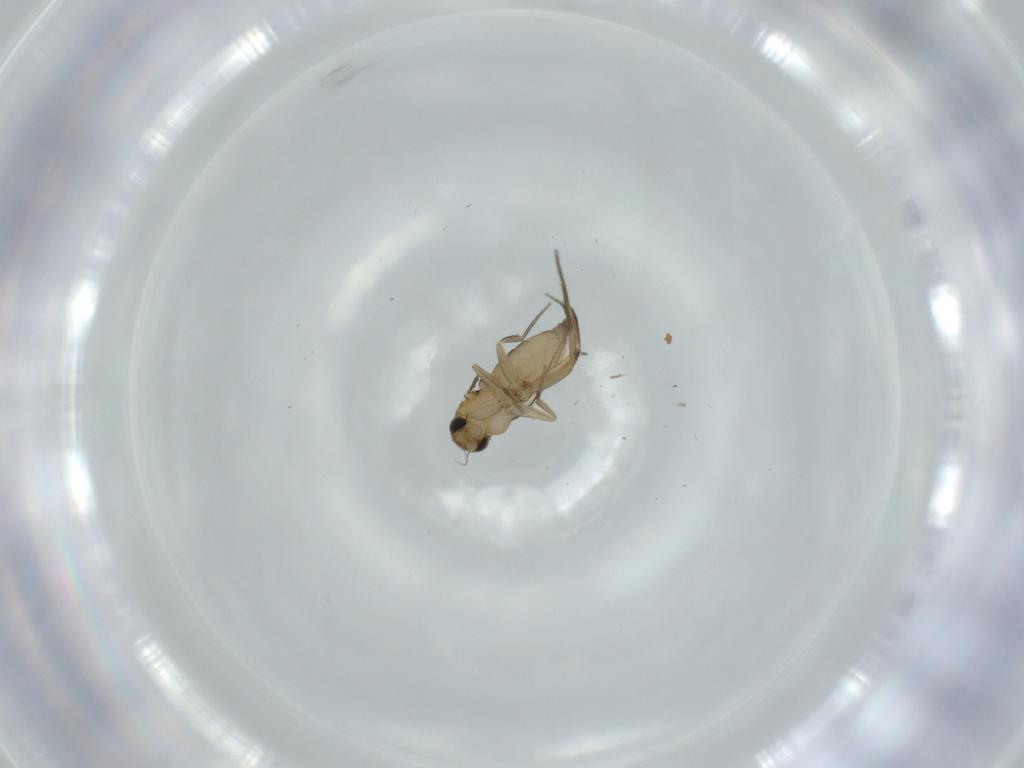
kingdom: Animalia
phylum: Arthropoda
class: Insecta
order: Diptera
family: Phoridae
